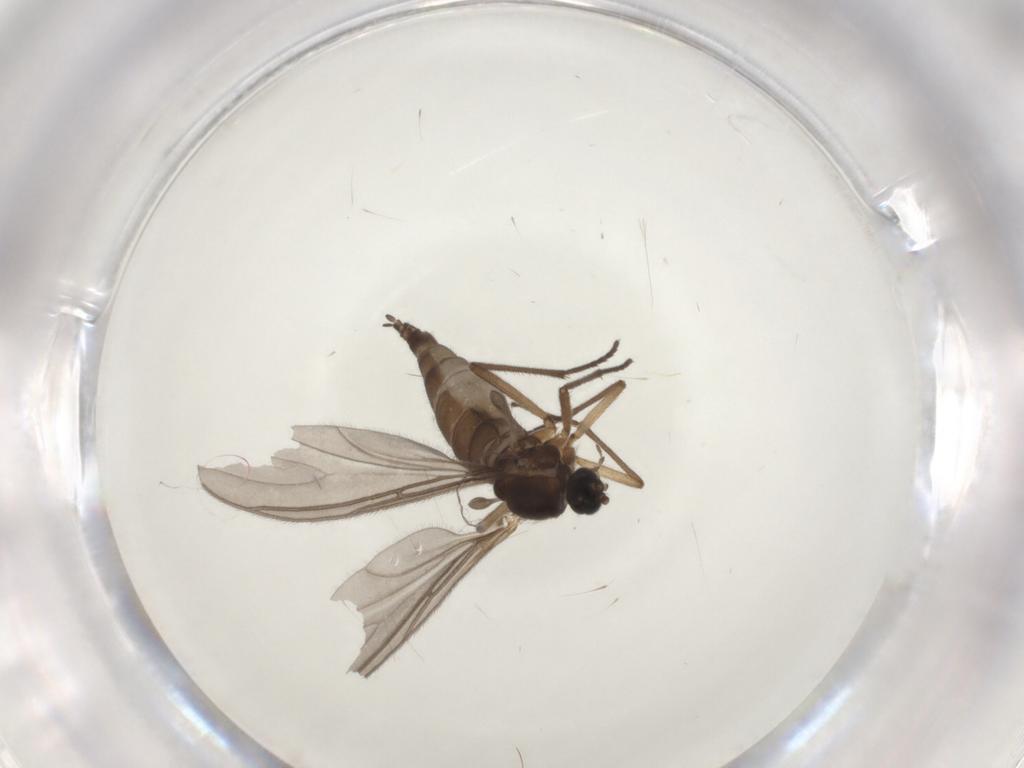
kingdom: Animalia
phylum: Arthropoda
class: Insecta
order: Diptera
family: Sciaridae
